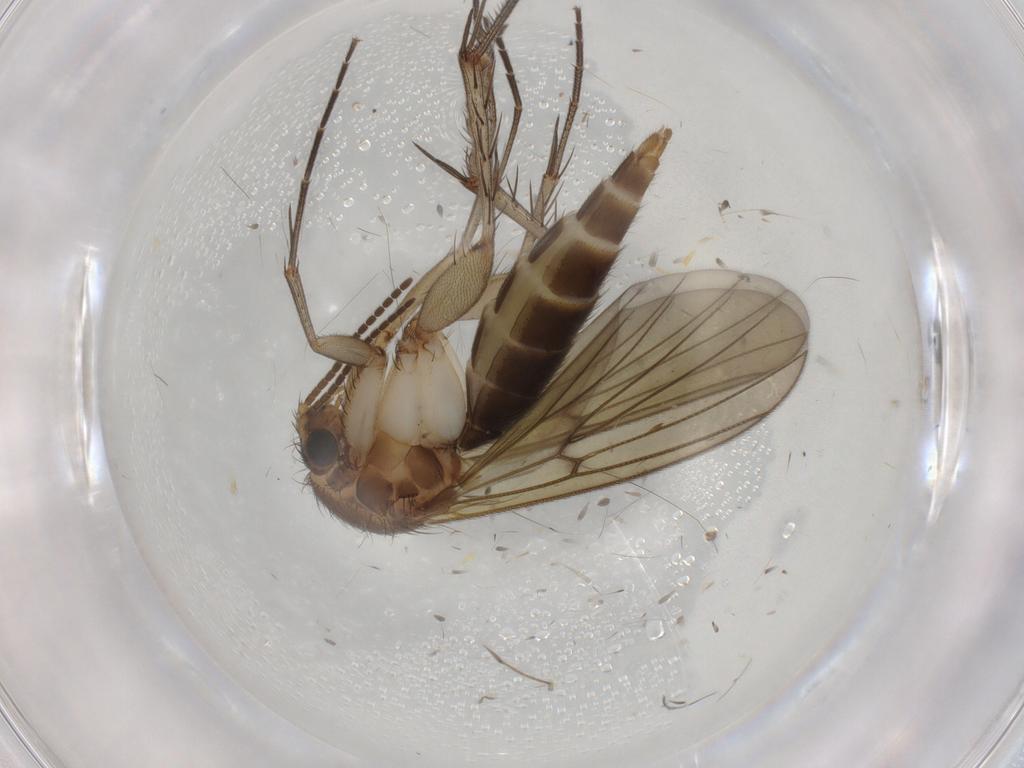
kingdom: Animalia
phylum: Arthropoda
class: Insecta
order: Diptera
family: Mycetophilidae
